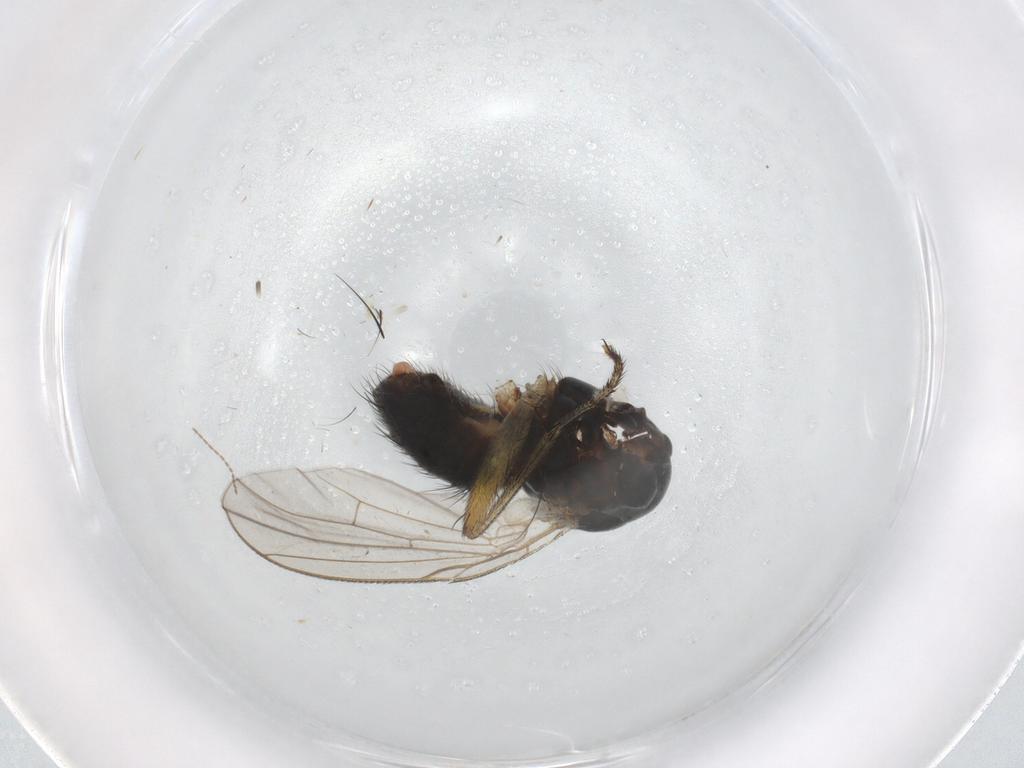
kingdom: Animalia
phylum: Arthropoda
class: Insecta
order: Diptera
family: Muscidae
